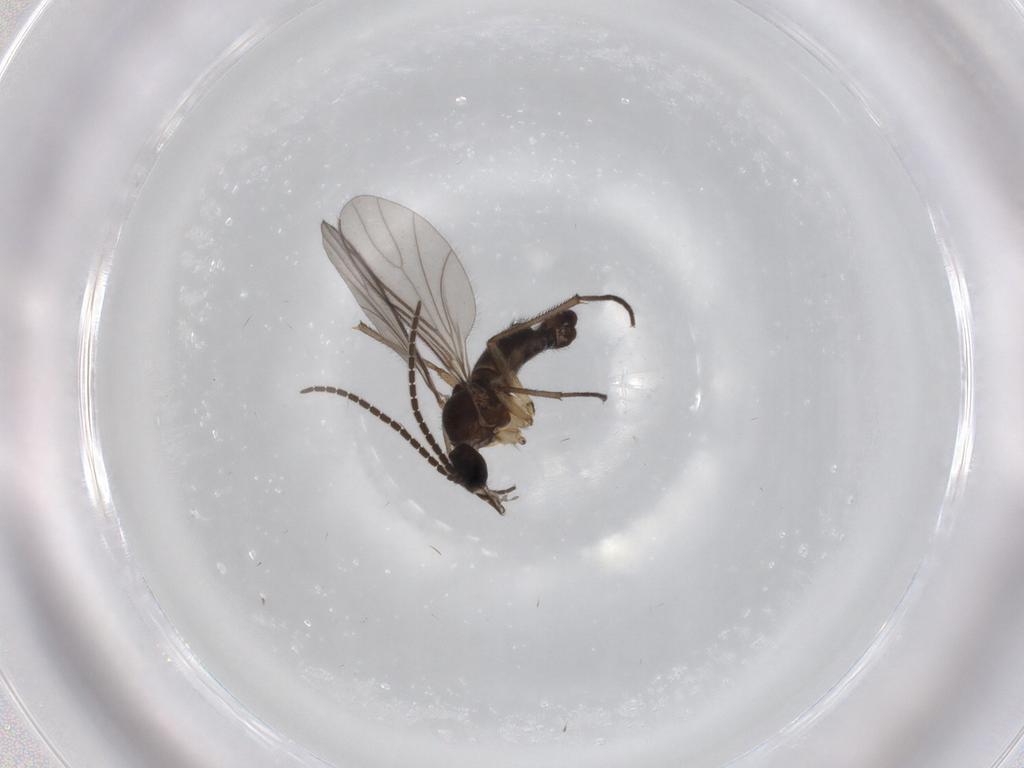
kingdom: Animalia
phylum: Arthropoda
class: Insecta
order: Diptera
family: Sciaridae
